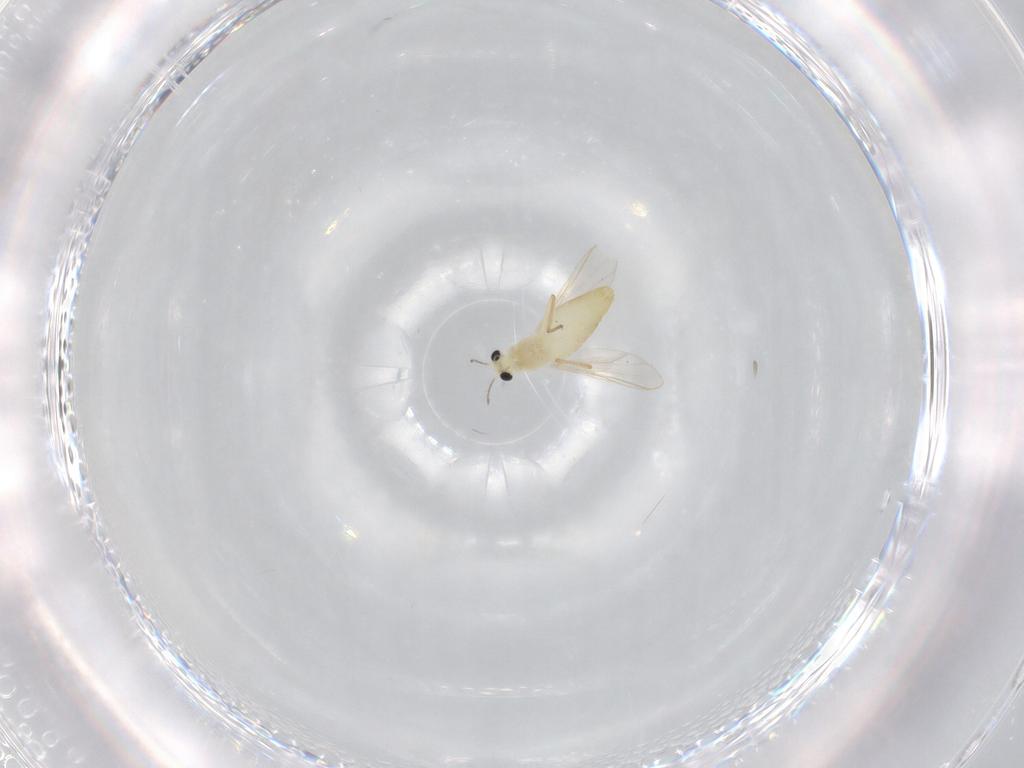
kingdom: Animalia
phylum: Arthropoda
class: Insecta
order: Diptera
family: Chironomidae
